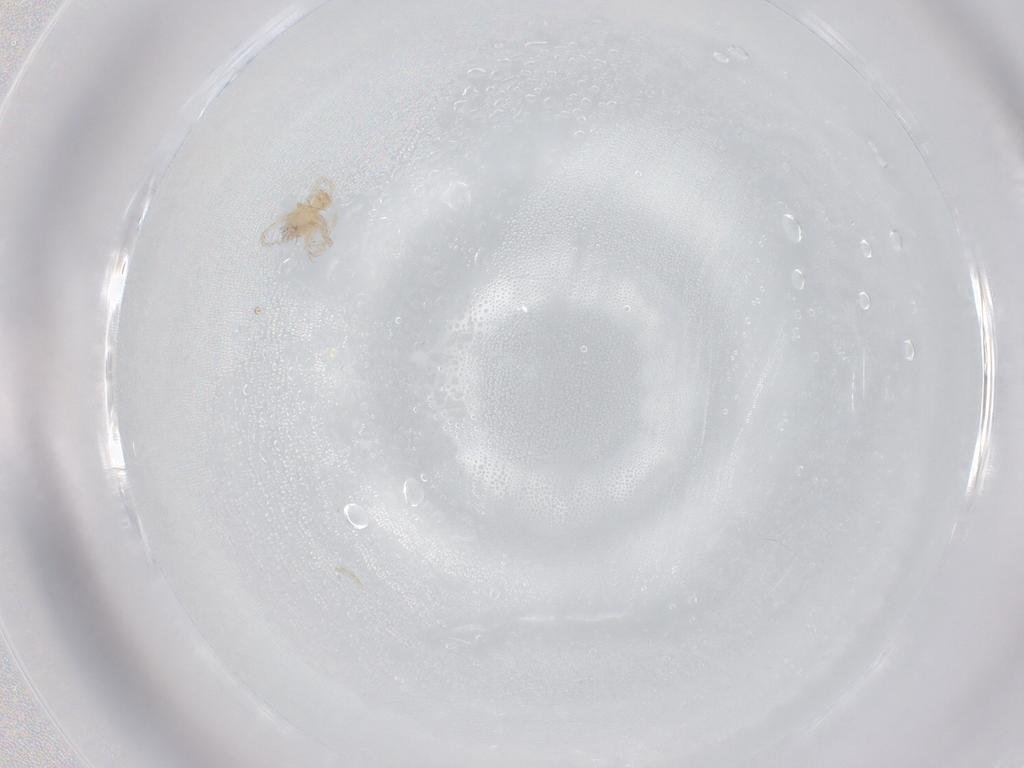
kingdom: Animalia
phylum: Arthropoda
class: Arachnida
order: Trombidiformes
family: Erythraeidae
